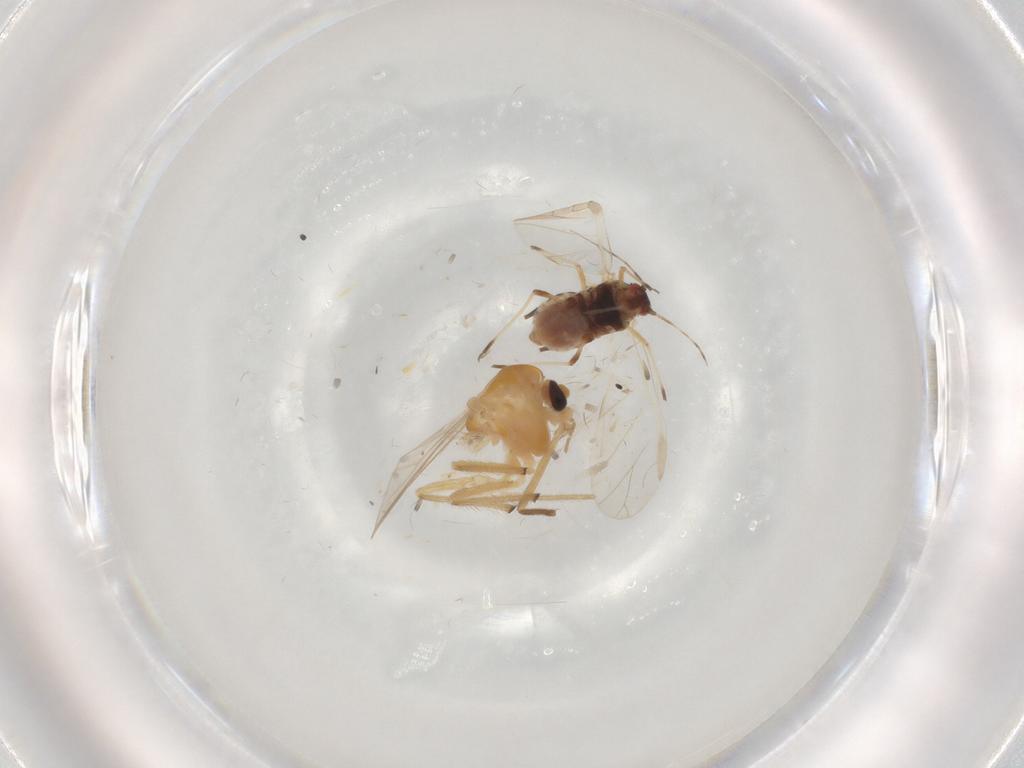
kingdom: Animalia
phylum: Arthropoda
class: Insecta
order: Diptera
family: Chironomidae
